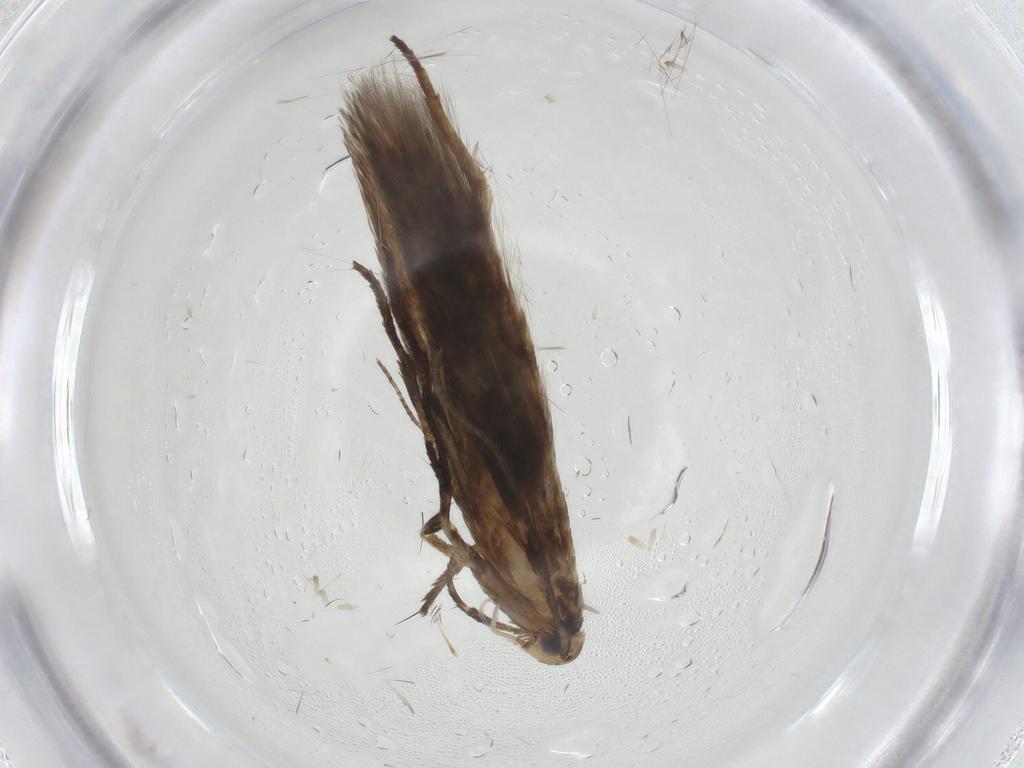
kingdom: Animalia
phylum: Arthropoda
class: Insecta
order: Lepidoptera
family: Cosmopterigidae
